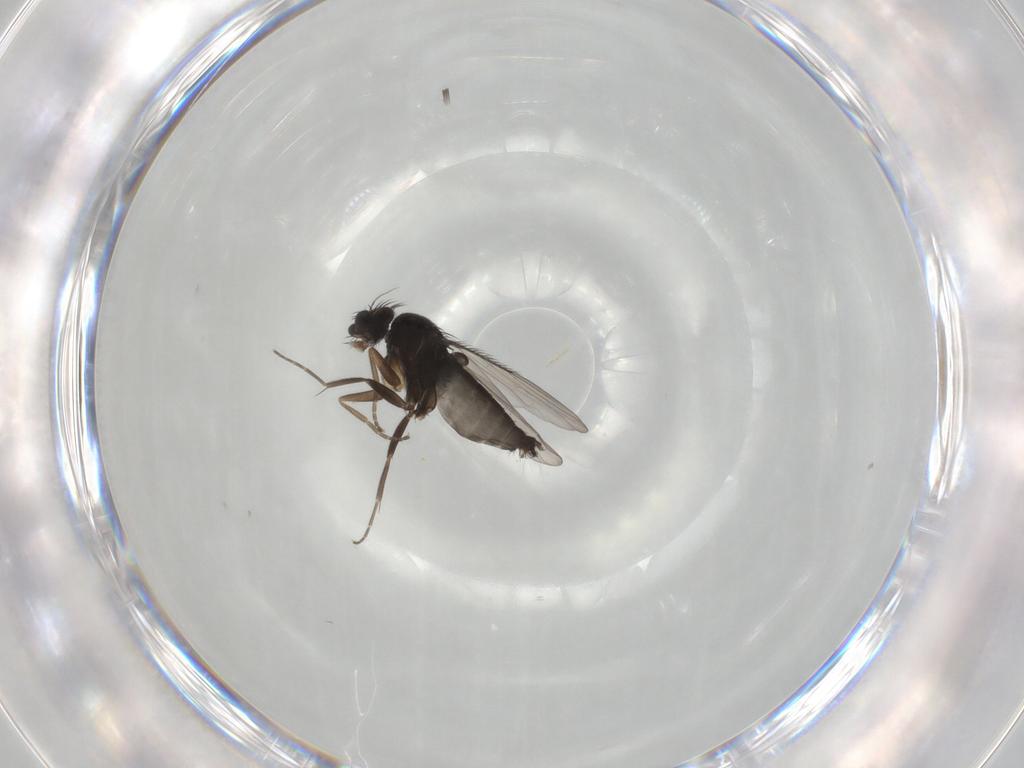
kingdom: Animalia
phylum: Arthropoda
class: Insecta
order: Diptera
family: Phoridae
